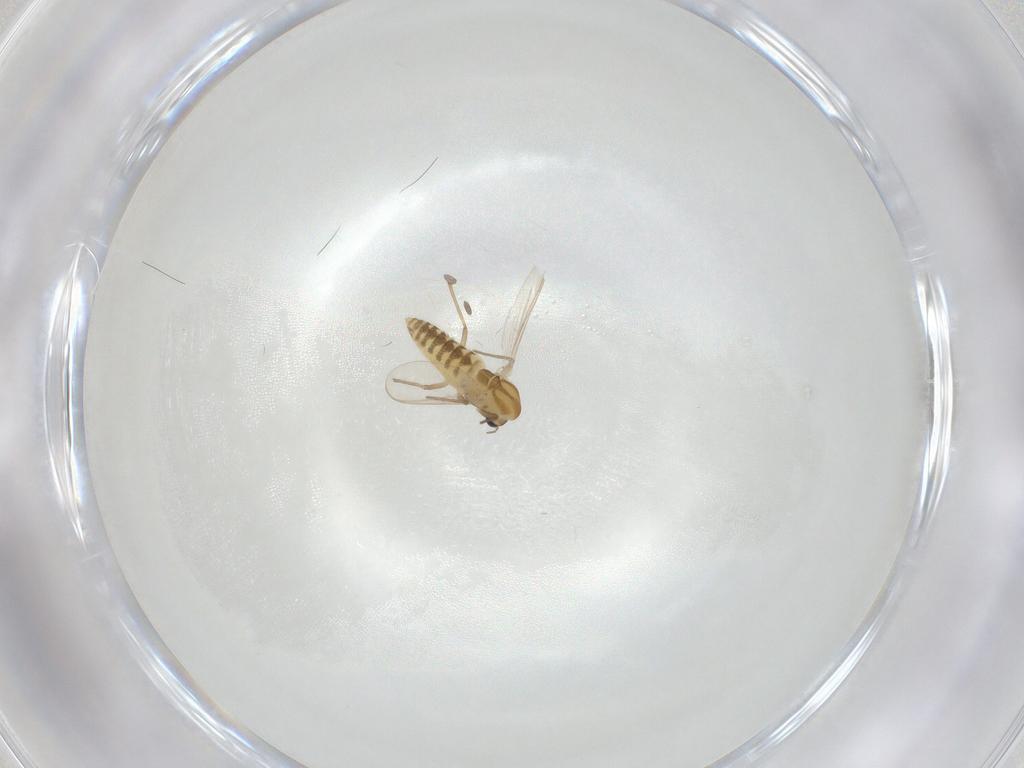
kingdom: Animalia
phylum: Arthropoda
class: Insecta
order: Diptera
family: Chironomidae
